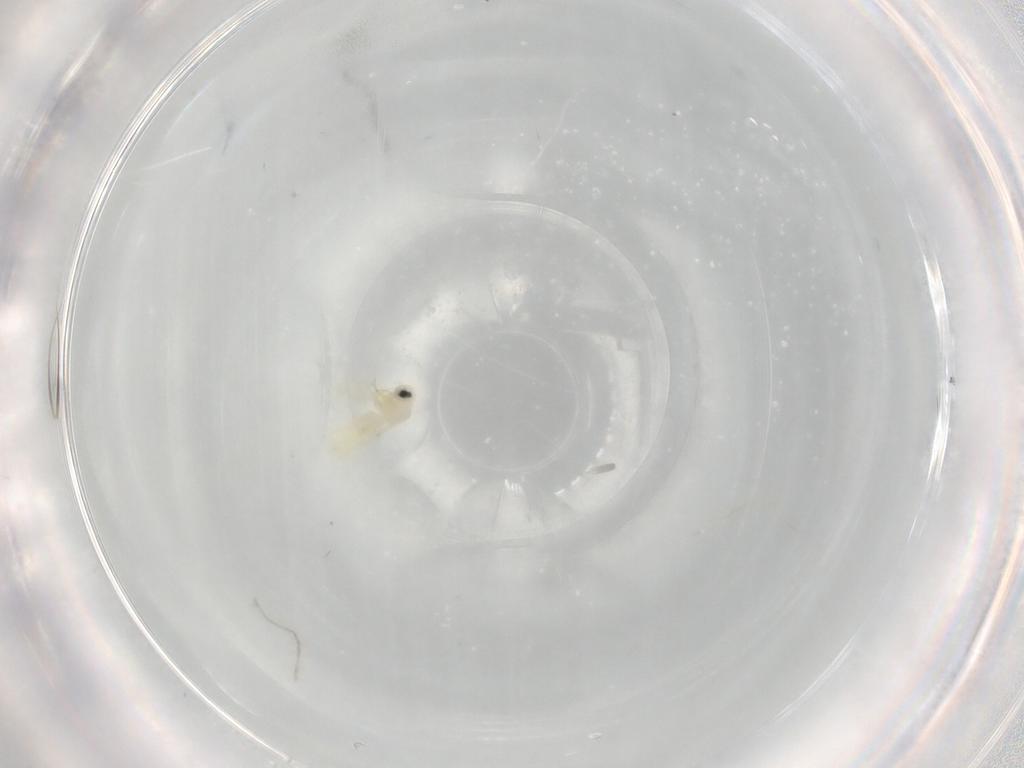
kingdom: Animalia
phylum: Arthropoda
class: Insecta
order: Hemiptera
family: Aleyrodidae
